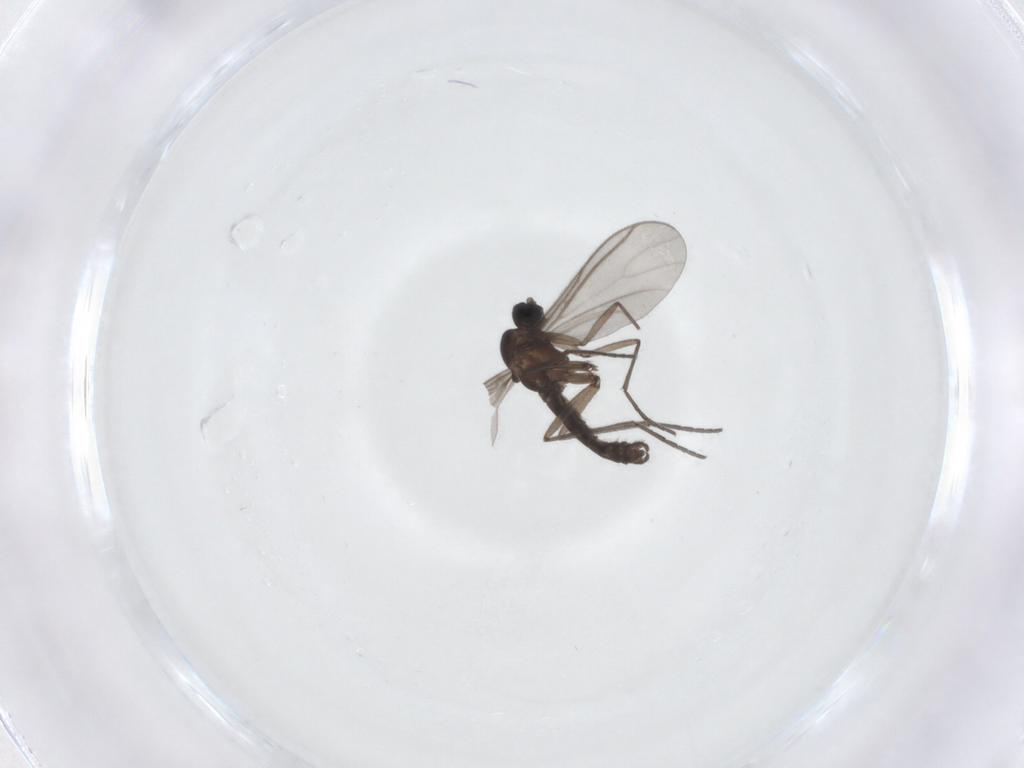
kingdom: Animalia
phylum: Arthropoda
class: Insecta
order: Diptera
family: Sciaridae
